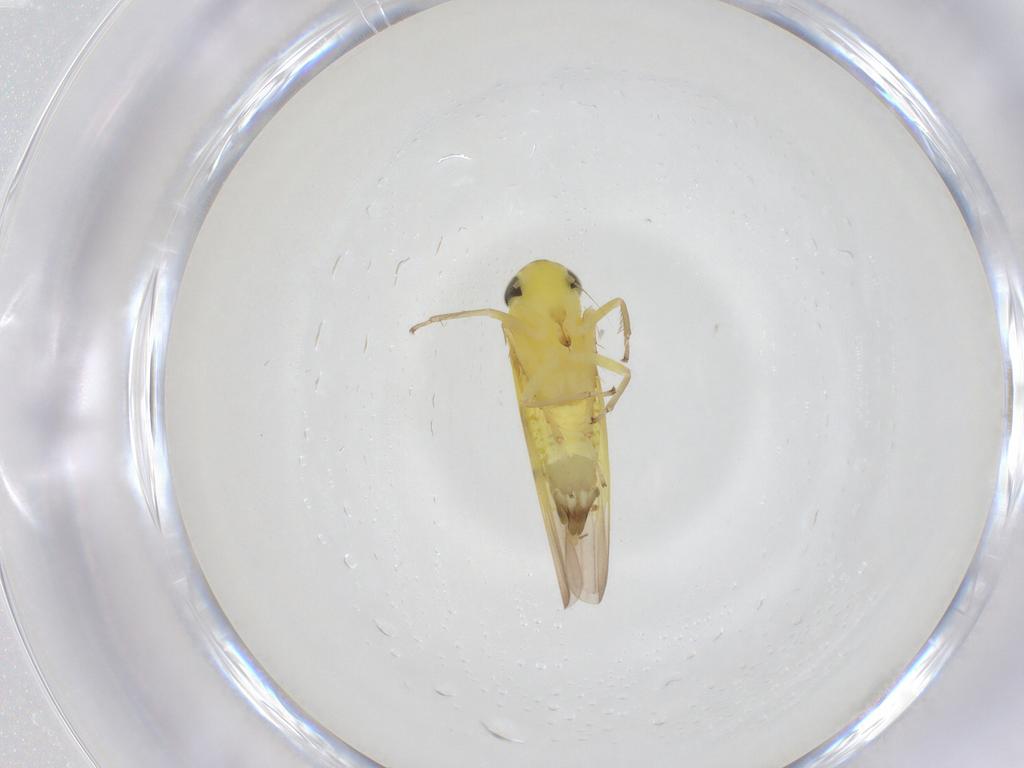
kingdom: Animalia
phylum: Arthropoda
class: Insecta
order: Hemiptera
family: Cicadellidae
